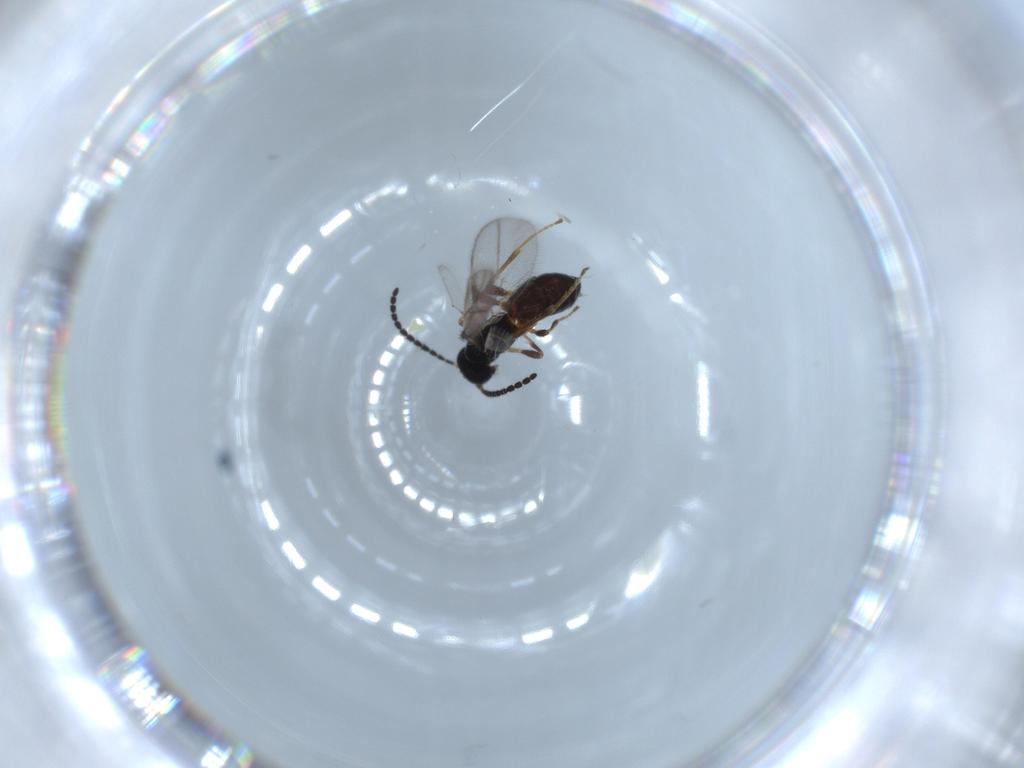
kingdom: Animalia
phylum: Arthropoda
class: Insecta
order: Hymenoptera
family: Braconidae
